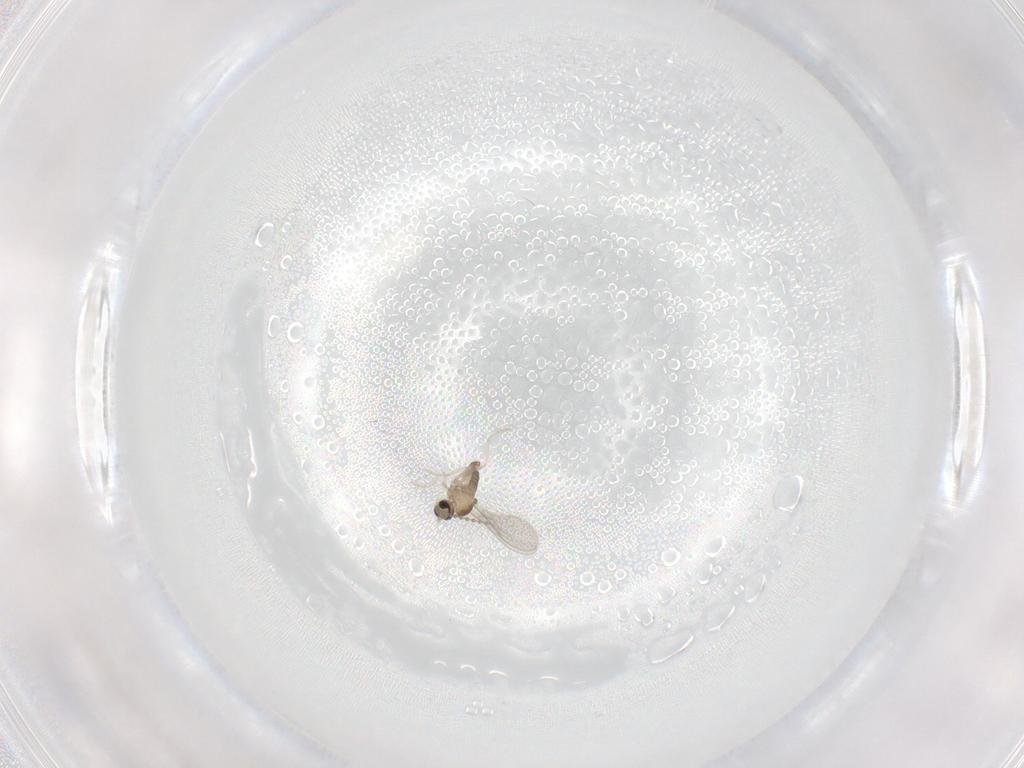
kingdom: Animalia
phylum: Arthropoda
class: Insecta
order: Diptera
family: Cecidomyiidae
